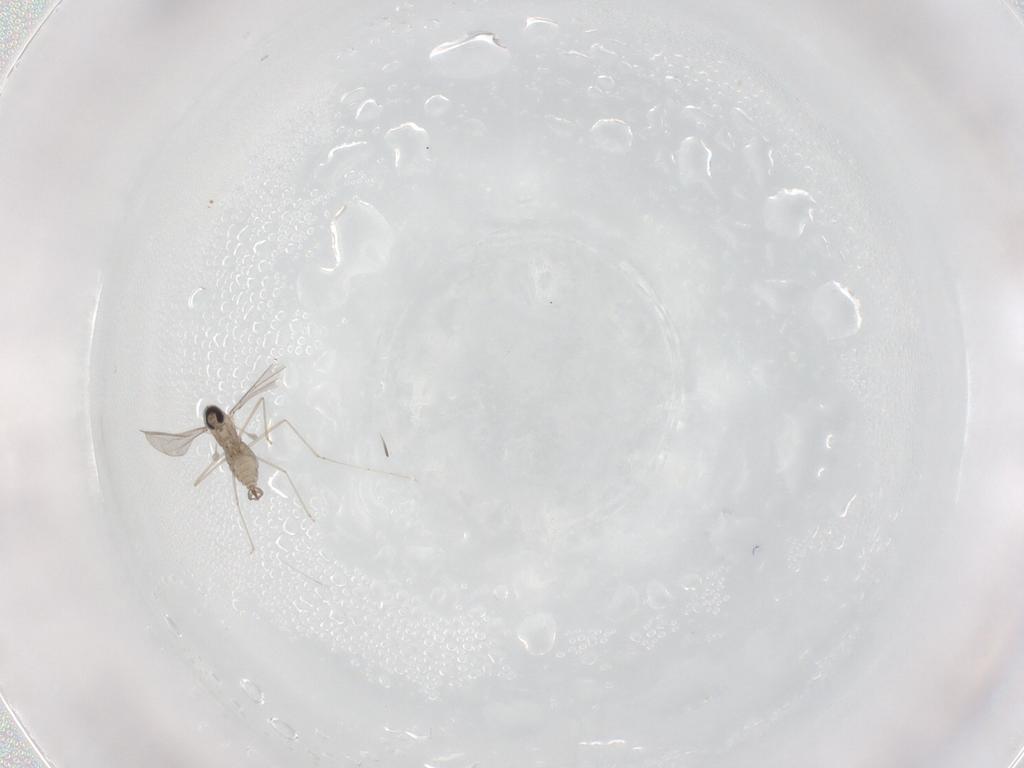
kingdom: Animalia
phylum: Arthropoda
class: Insecta
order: Diptera
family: Cecidomyiidae
